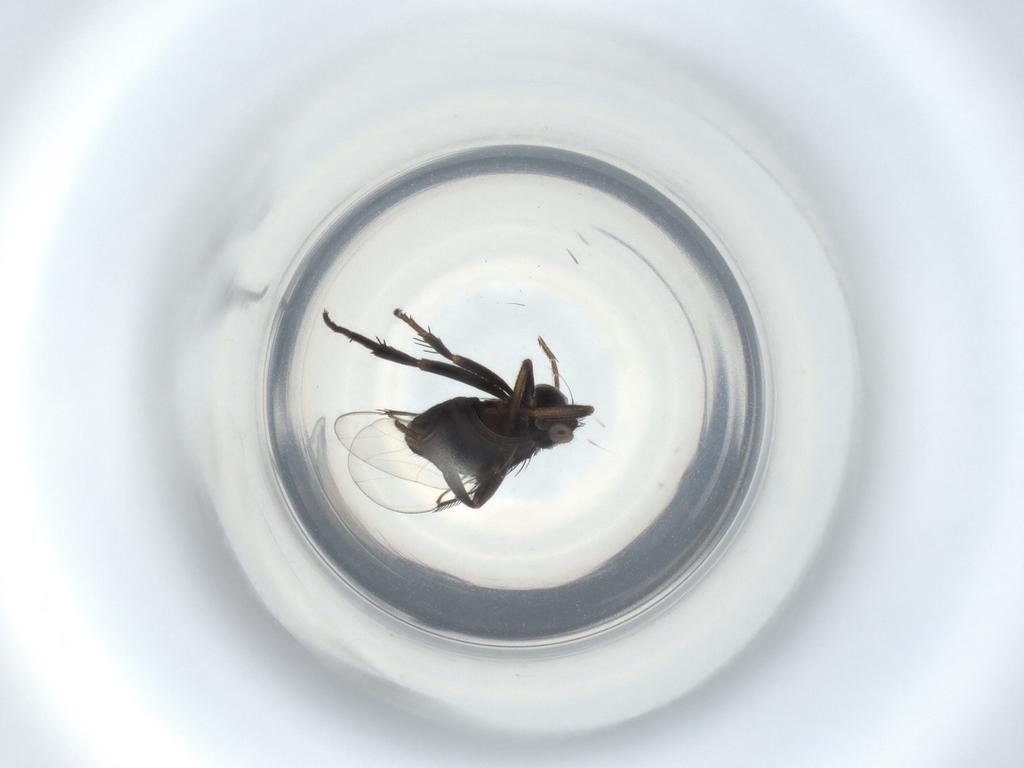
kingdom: Animalia
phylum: Arthropoda
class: Insecta
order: Diptera
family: Phoridae
